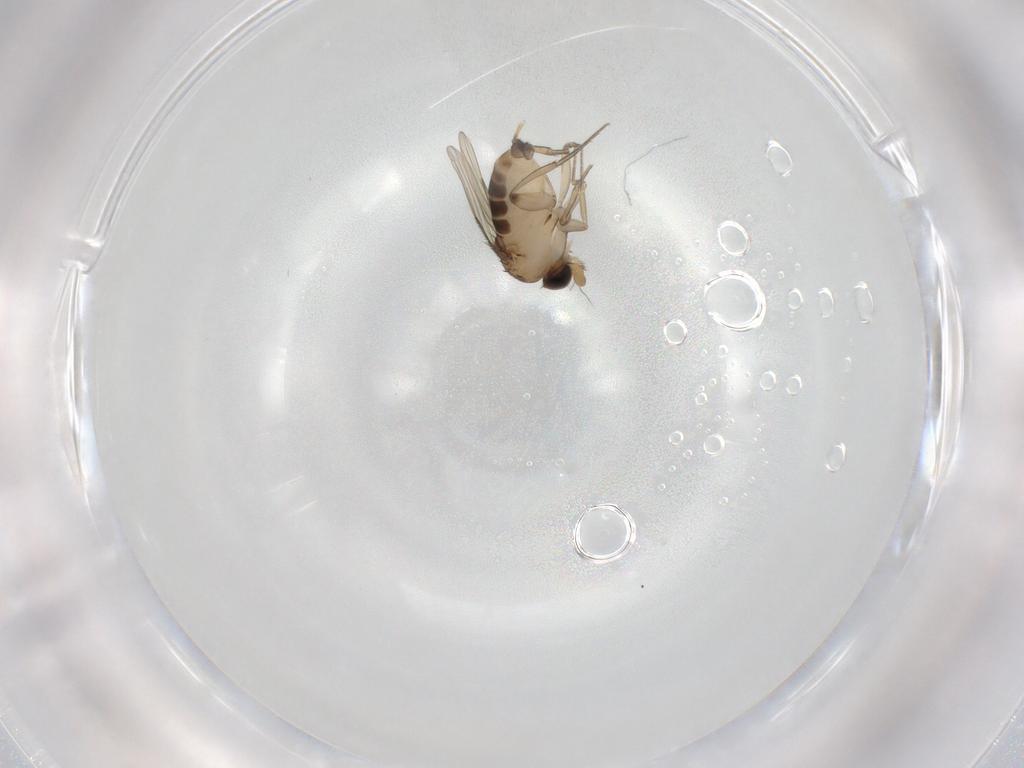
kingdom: Animalia
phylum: Arthropoda
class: Insecta
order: Diptera
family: Phoridae
